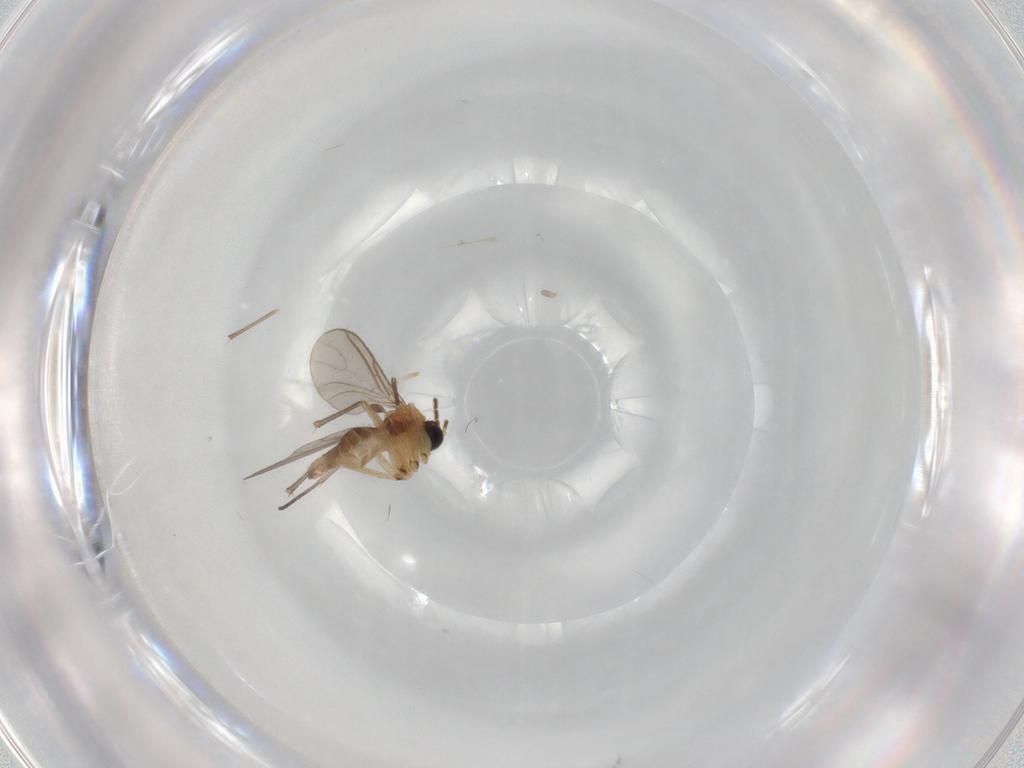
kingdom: Animalia
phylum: Arthropoda
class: Insecta
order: Diptera
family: Sciaridae
